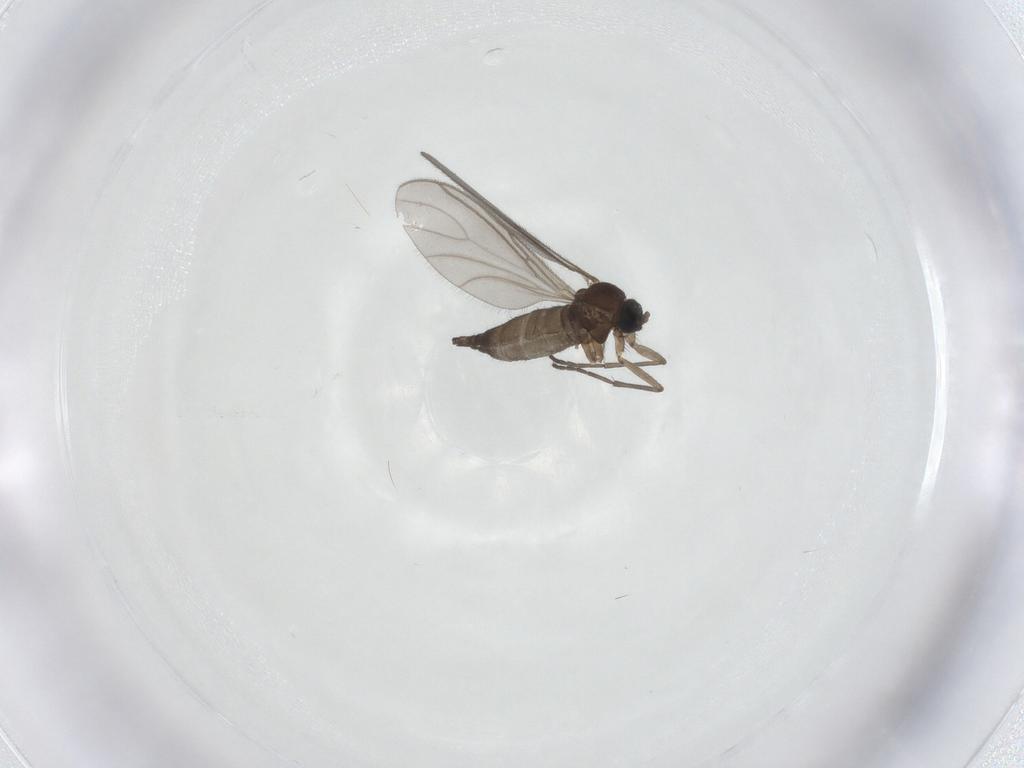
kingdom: Animalia
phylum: Arthropoda
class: Insecta
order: Diptera
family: Sciaridae
